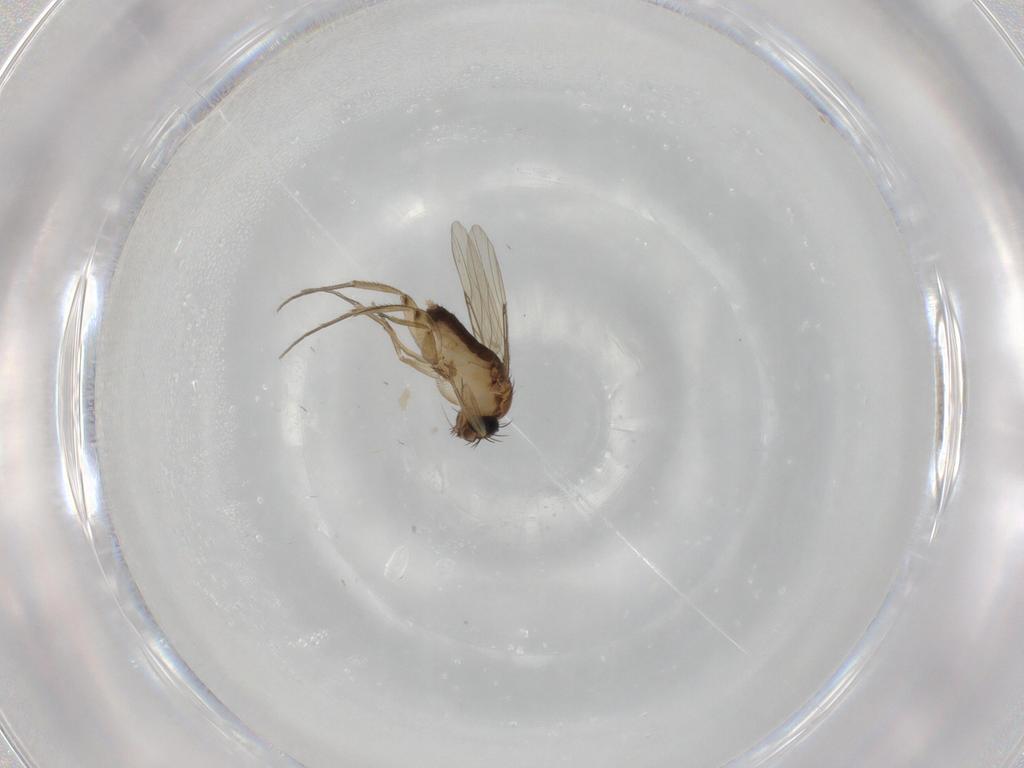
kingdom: Animalia
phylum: Arthropoda
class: Insecta
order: Diptera
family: Phoridae
